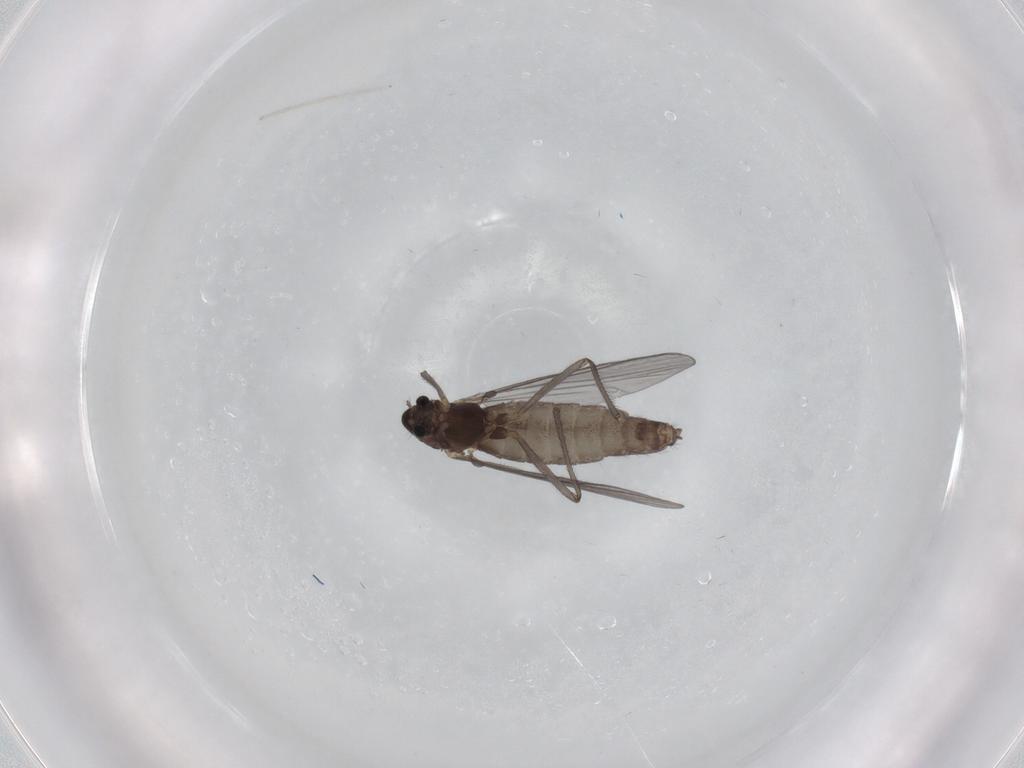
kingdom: Animalia
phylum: Arthropoda
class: Insecta
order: Diptera
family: Chironomidae
